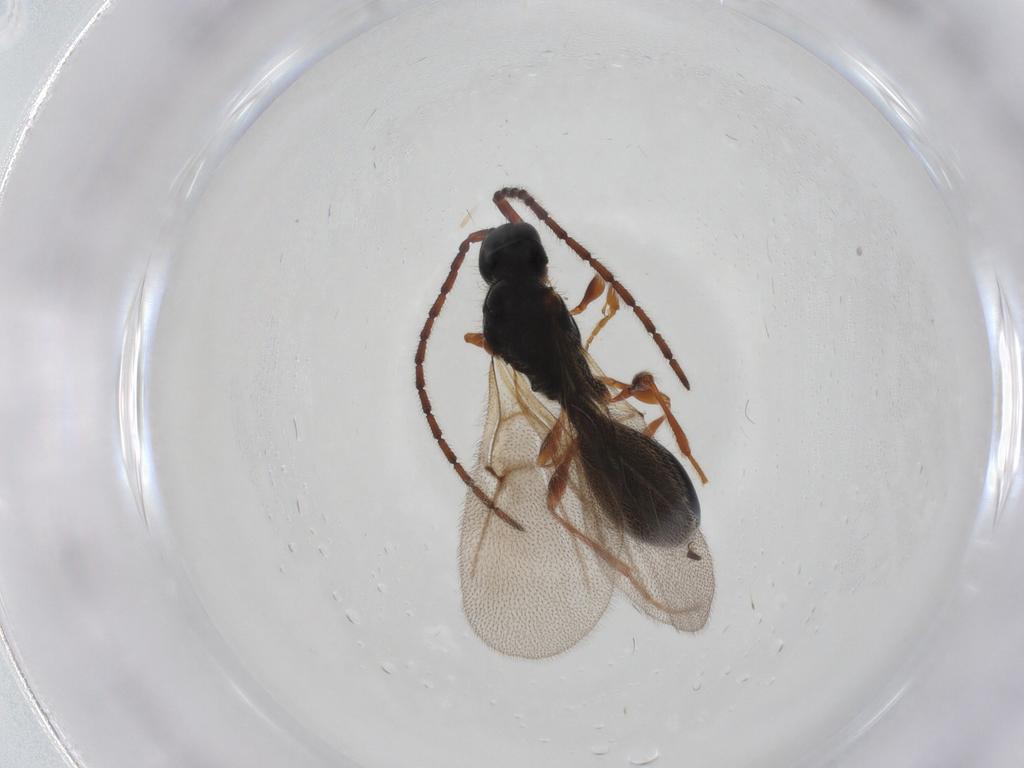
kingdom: Animalia
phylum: Arthropoda
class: Insecta
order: Hymenoptera
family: Diapriidae
